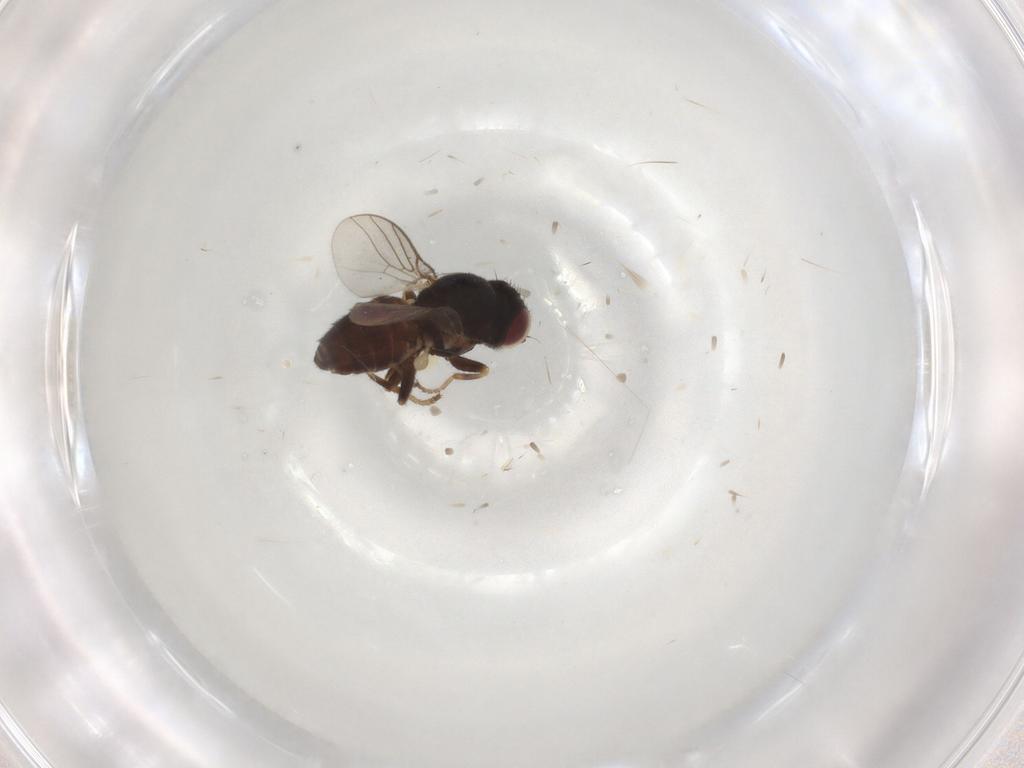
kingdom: Animalia
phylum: Arthropoda
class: Insecta
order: Diptera
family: Chloropidae
